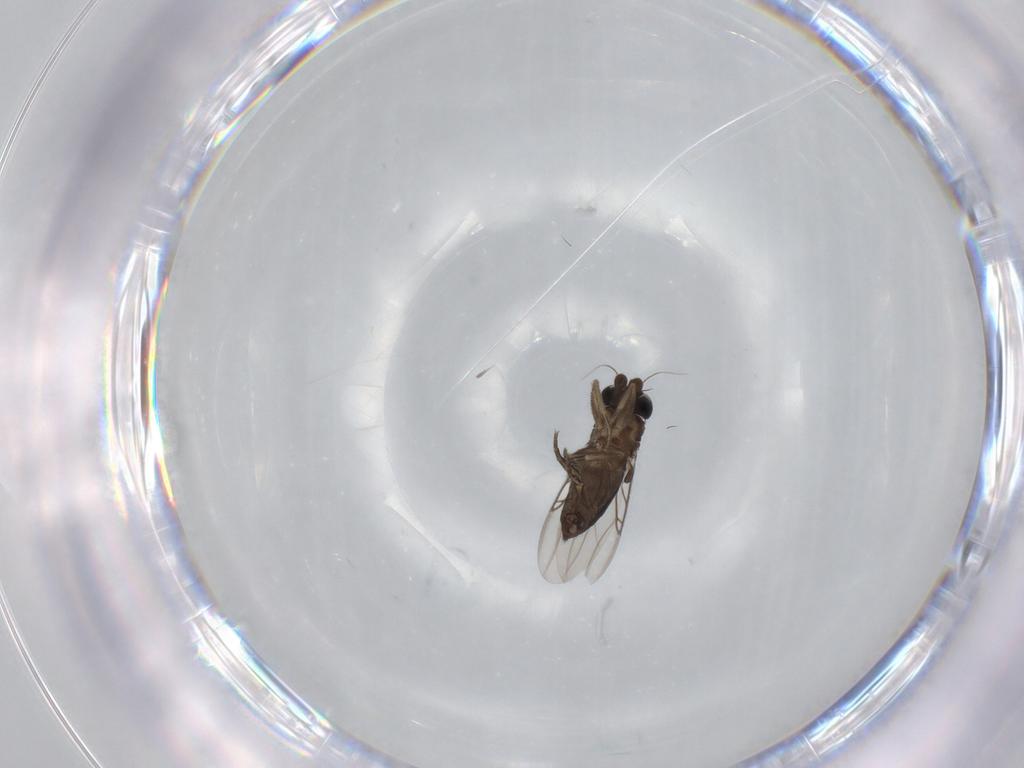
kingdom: Animalia
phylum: Arthropoda
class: Insecta
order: Diptera
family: Phoridae
